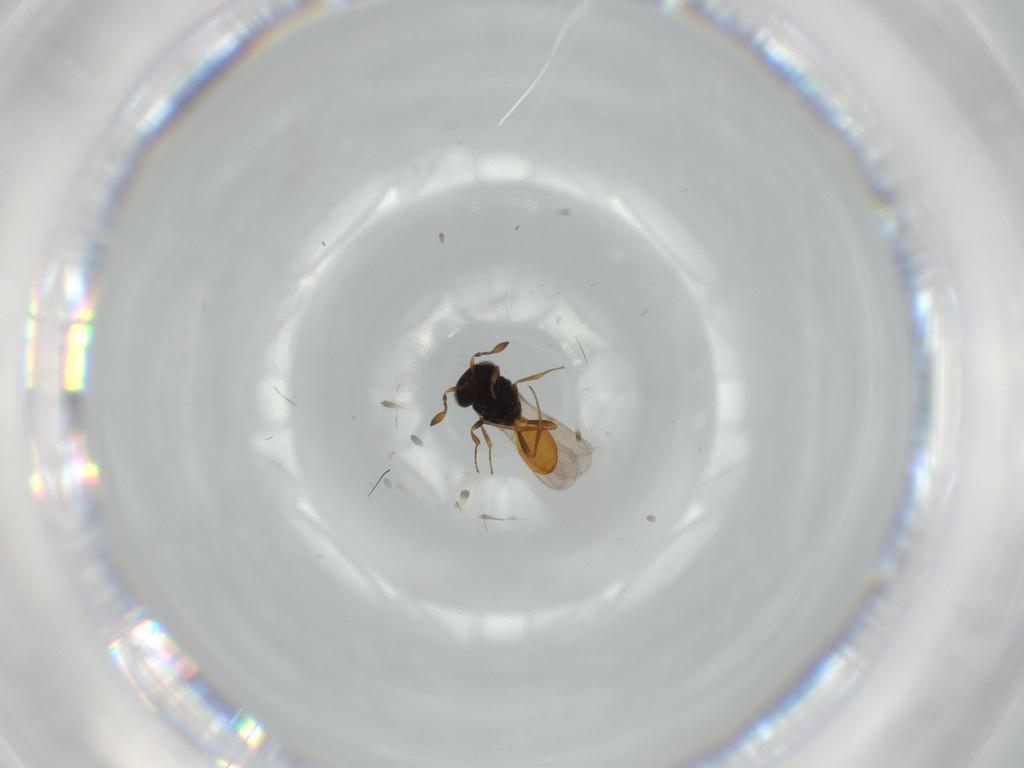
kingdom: Animalia
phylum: Arthropoda
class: Insecta
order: Hymenoptera
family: Scelionidae
